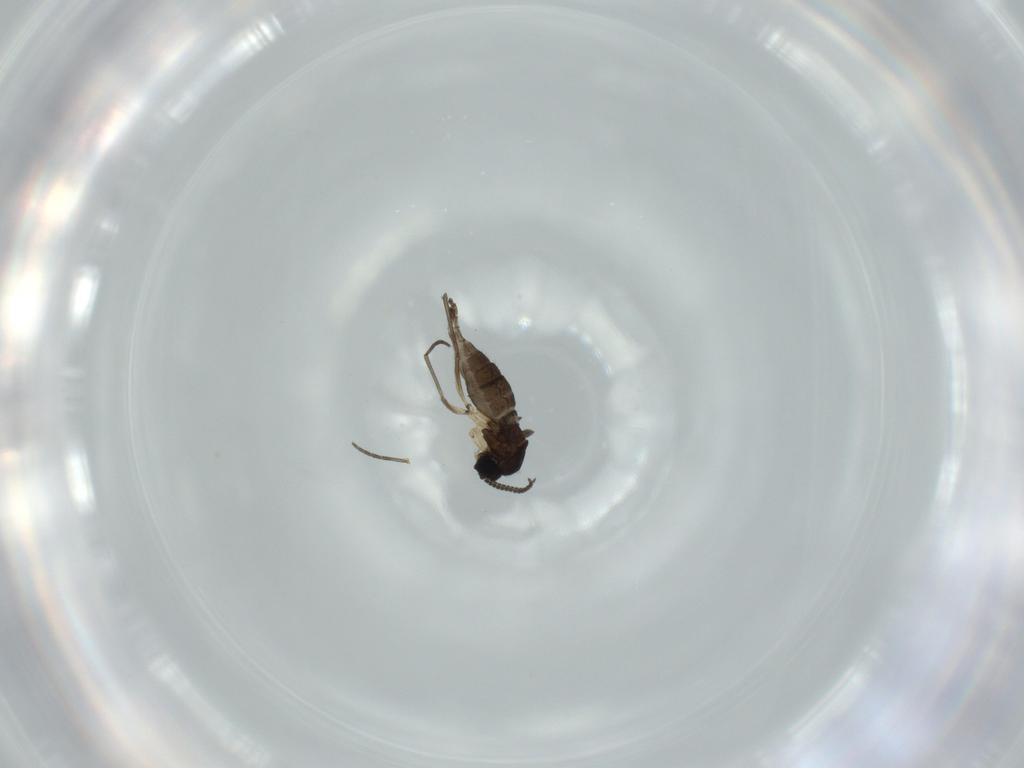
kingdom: Animalia
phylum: Arthropoda
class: Insecta
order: Diptera
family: Sciaridae
